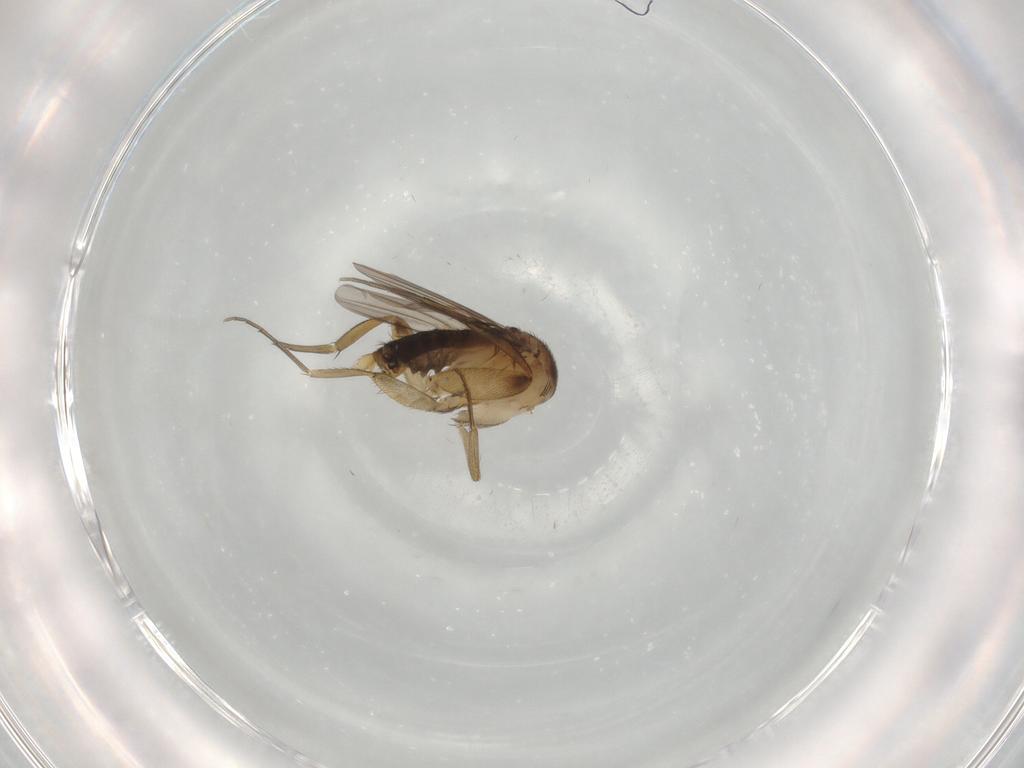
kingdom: Animalia
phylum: Arthropoda
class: Insecta
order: Diptera
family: Phoridae
